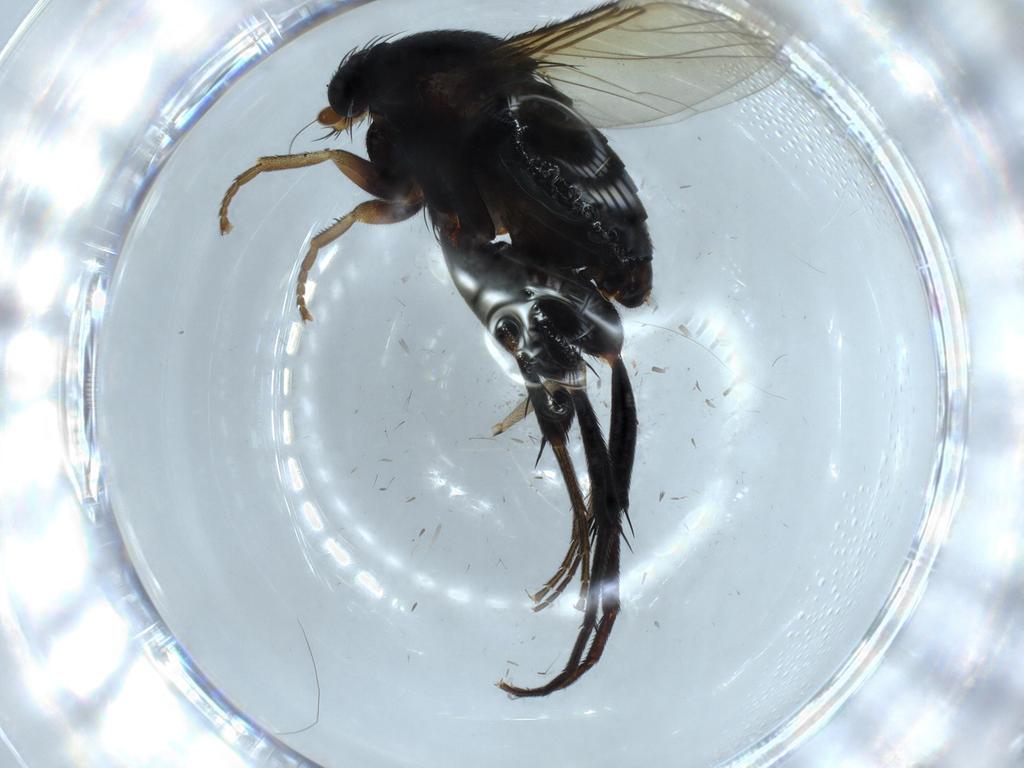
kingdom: Animalia
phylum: Arthropoda
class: Insecta
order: Diptera
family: Phoridae
